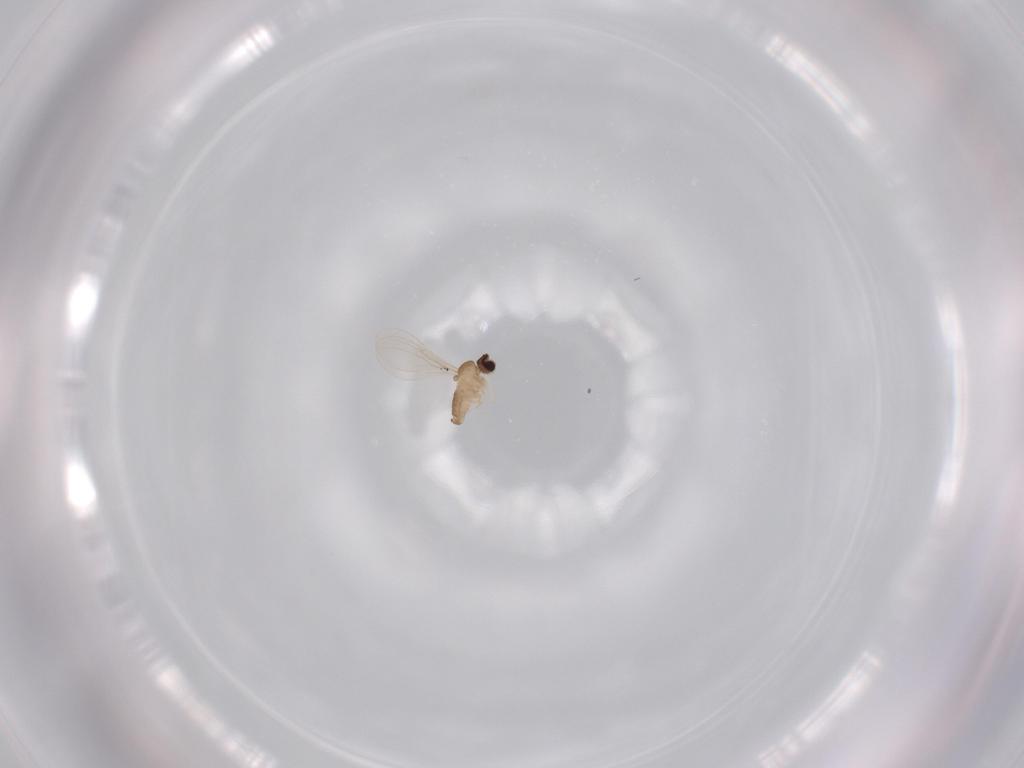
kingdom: Animalia
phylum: Arthropoda
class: Insecta
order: Diptera
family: Cecidomyiidae
